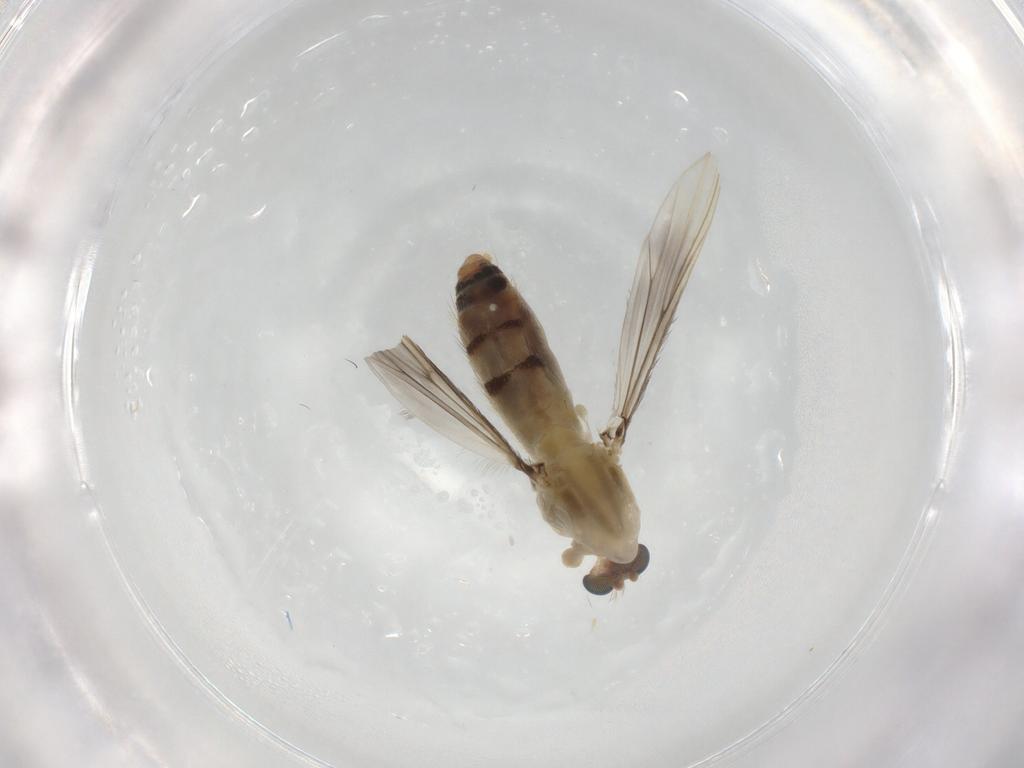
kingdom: Animalia
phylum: Arthropoda
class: Insecta
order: Diptera
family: Chironomidae
